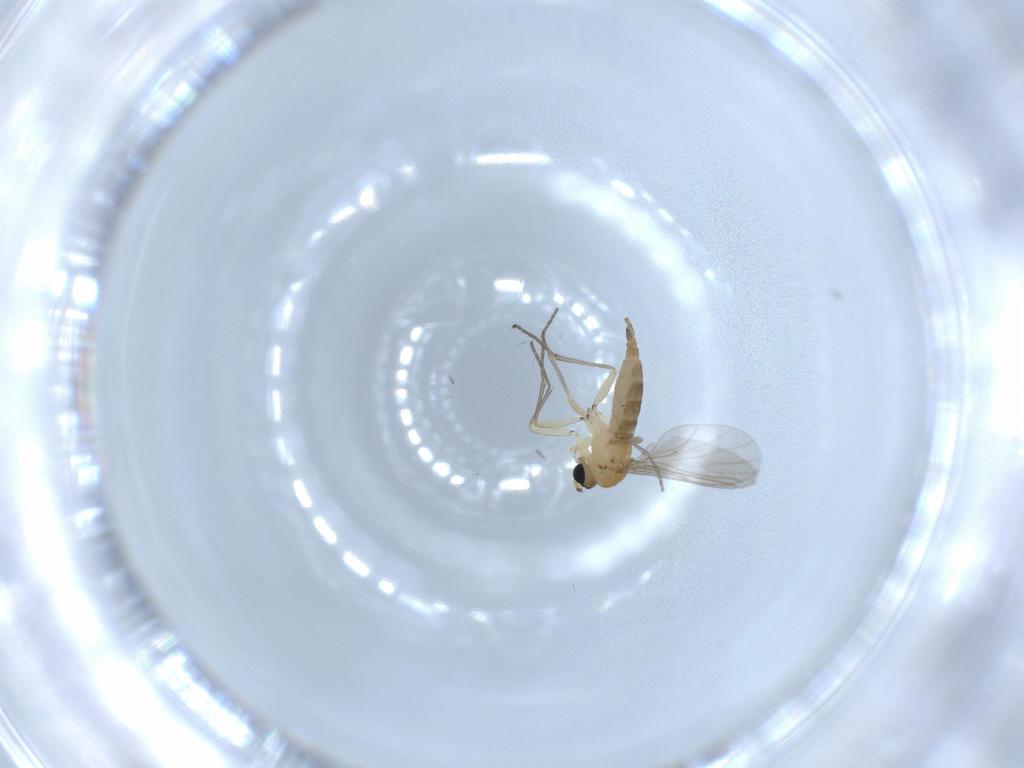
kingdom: Animalia
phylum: Arthropoda
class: Insecta
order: Diptera
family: Sciaridae
